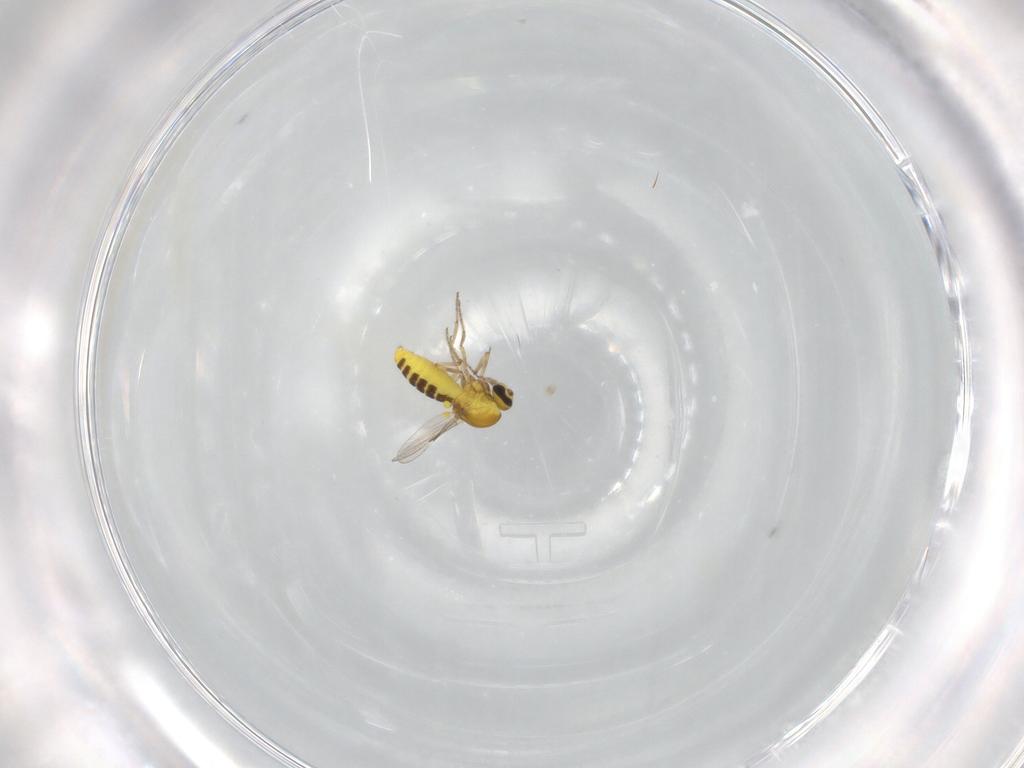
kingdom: Animalia
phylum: Arthropoda
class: Insecta
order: Diptera
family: Ceratopogonidae
